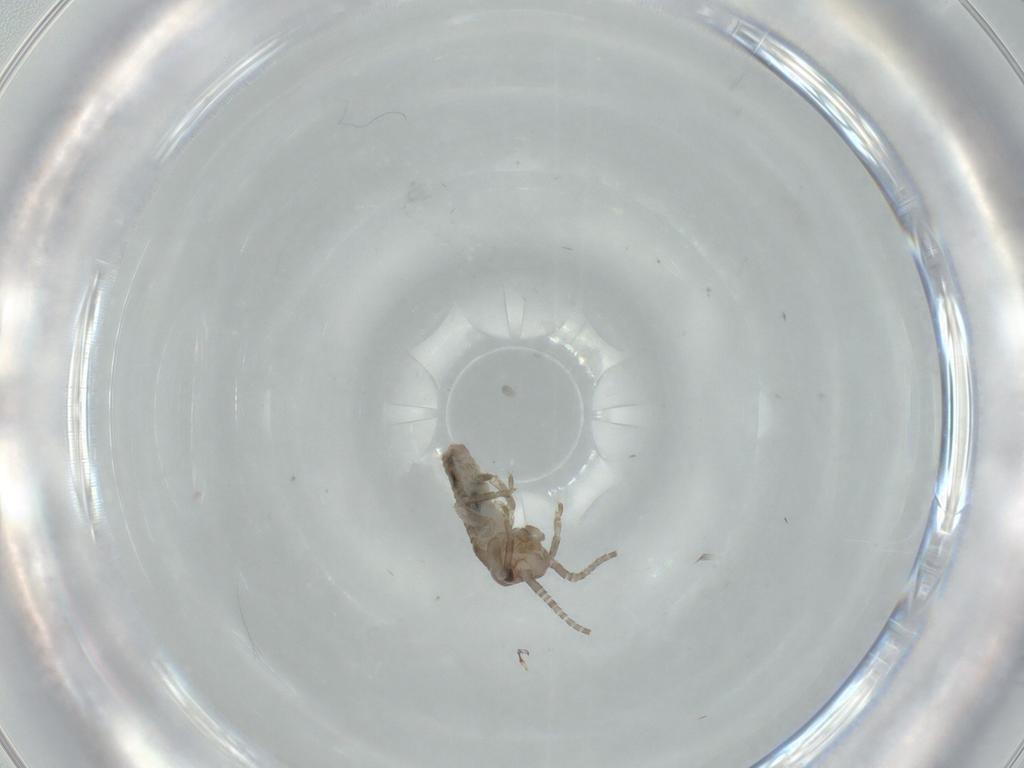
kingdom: Animalia
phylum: Arthropoda
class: Insecta
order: Orthoptera
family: Gryllidae
